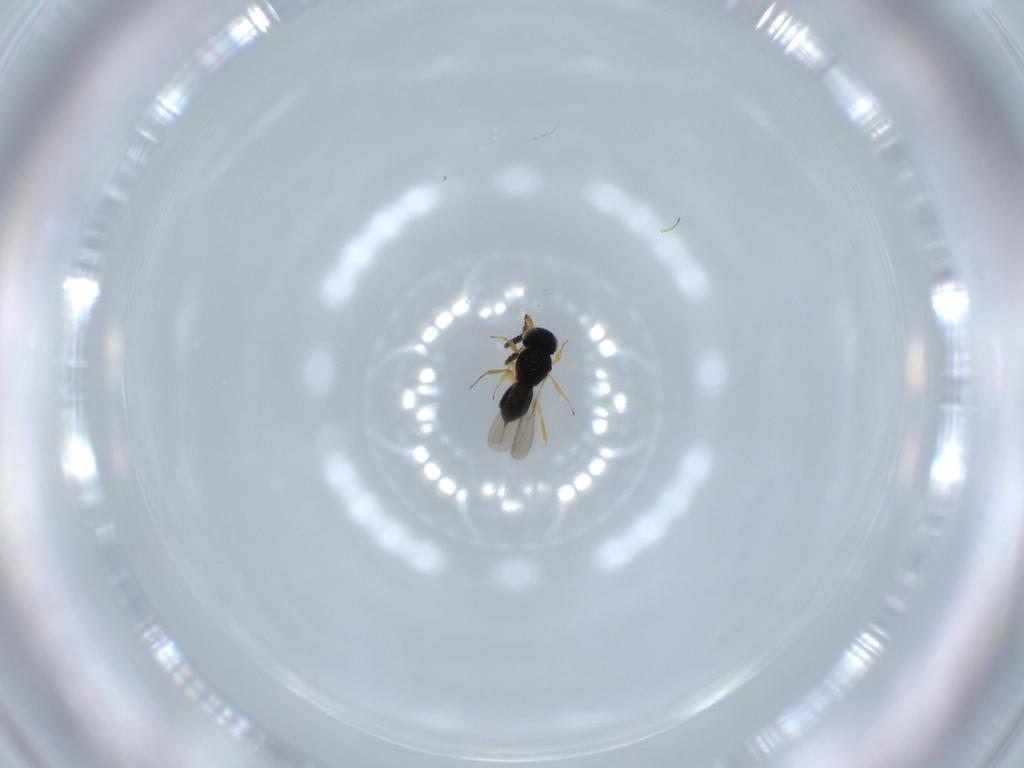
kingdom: Animalia
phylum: Arthropoda
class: Insecta
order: Hymenoptera
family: Scelionidae
